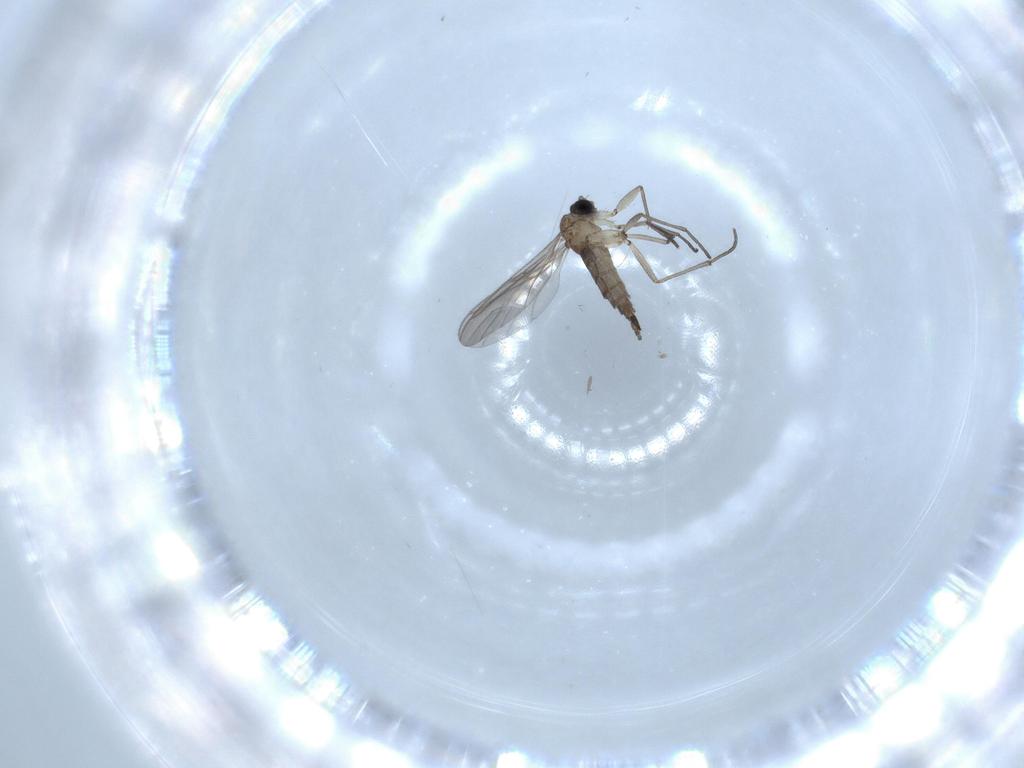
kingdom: Animalia
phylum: Arthropoda
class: Insecta
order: Diptera
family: Sciaridae
